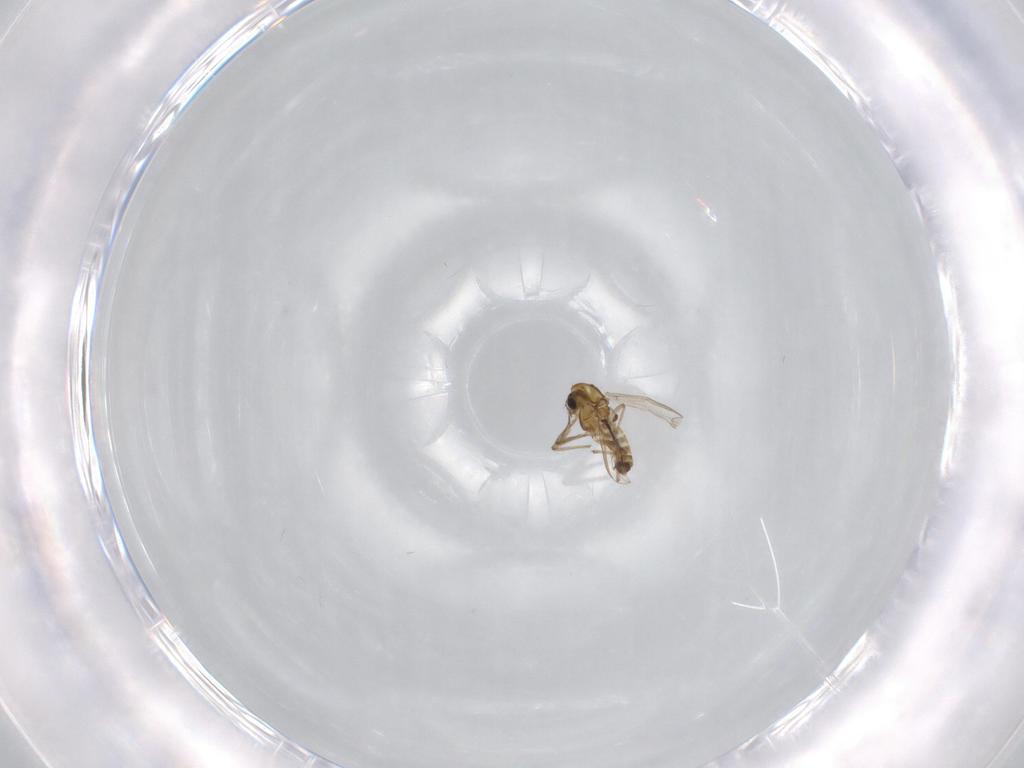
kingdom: Animalia
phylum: Arthropoda
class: Insecta
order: Diptera
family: Chironomidae
